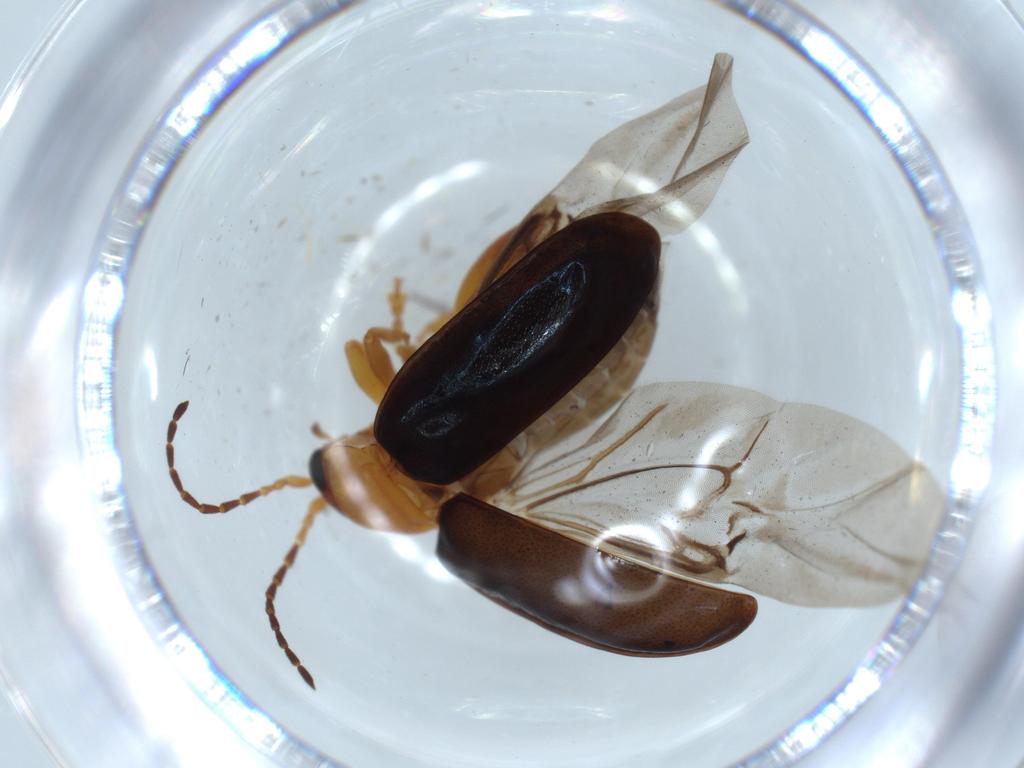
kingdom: Animalia
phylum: Arthropoda
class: Insecta
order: Coleoptera
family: Chrysomelidae
